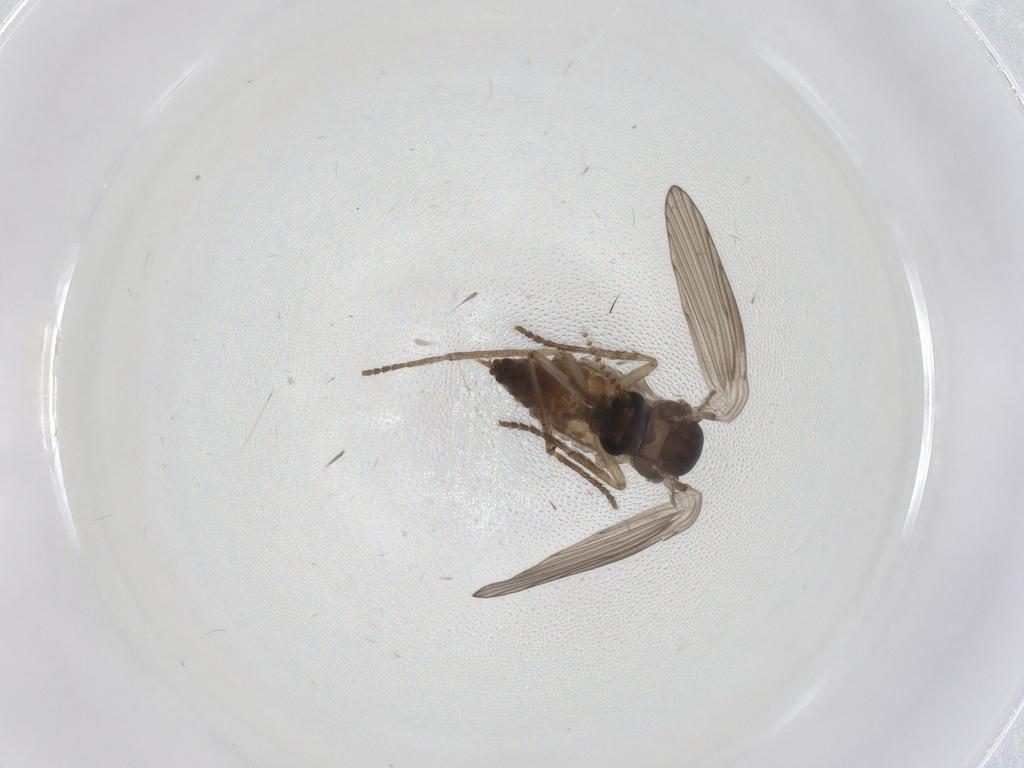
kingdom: Animalia
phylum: Arthropoda
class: Insecta
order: Diptera
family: Psychodidae
